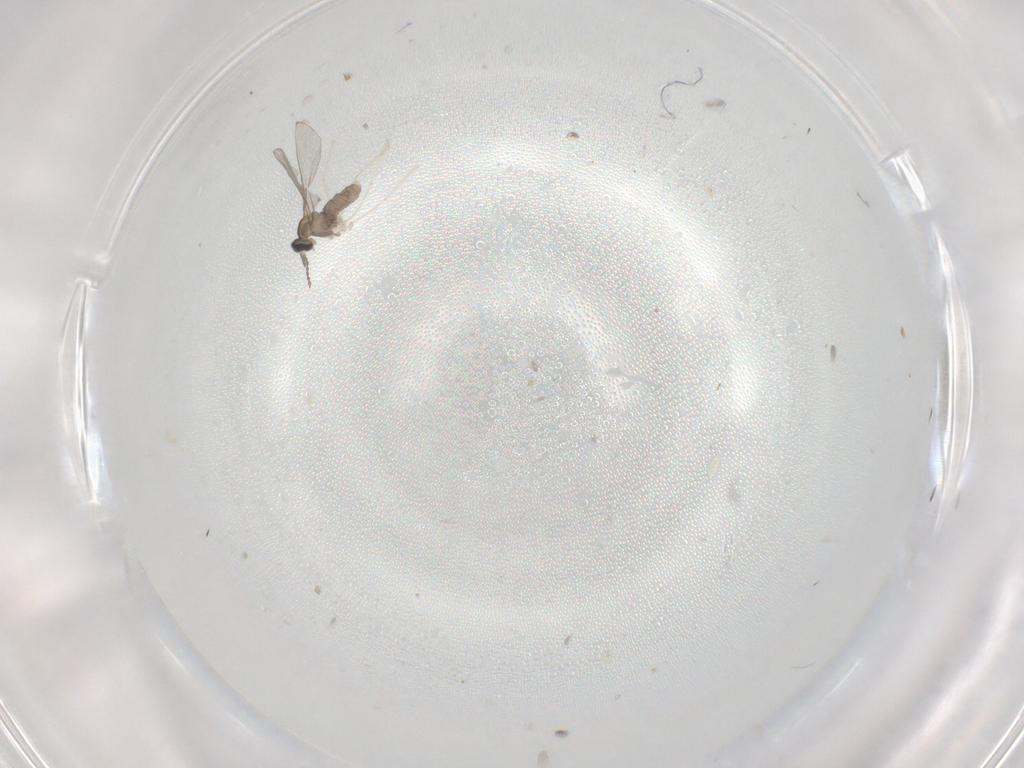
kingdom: Animalia
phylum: Arthropoda
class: Insecta
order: Diptera
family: Cecidomyiidae
